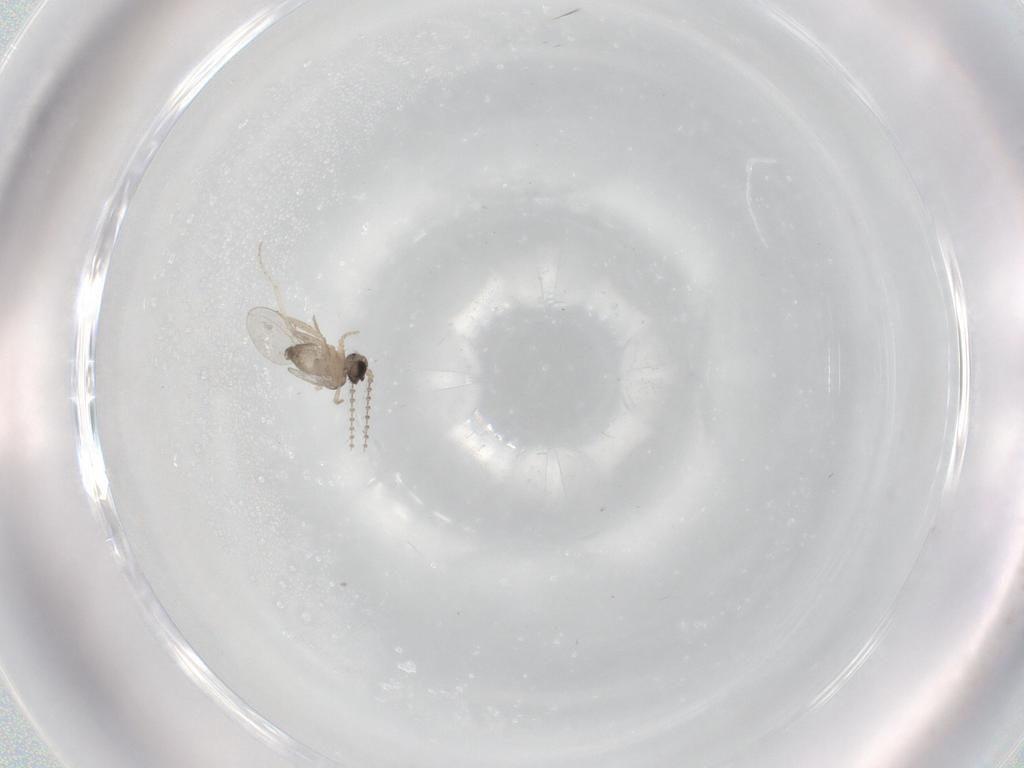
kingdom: Animalia
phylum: Arthropoda
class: Insecta
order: Diptera
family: Cecidomyiidae
